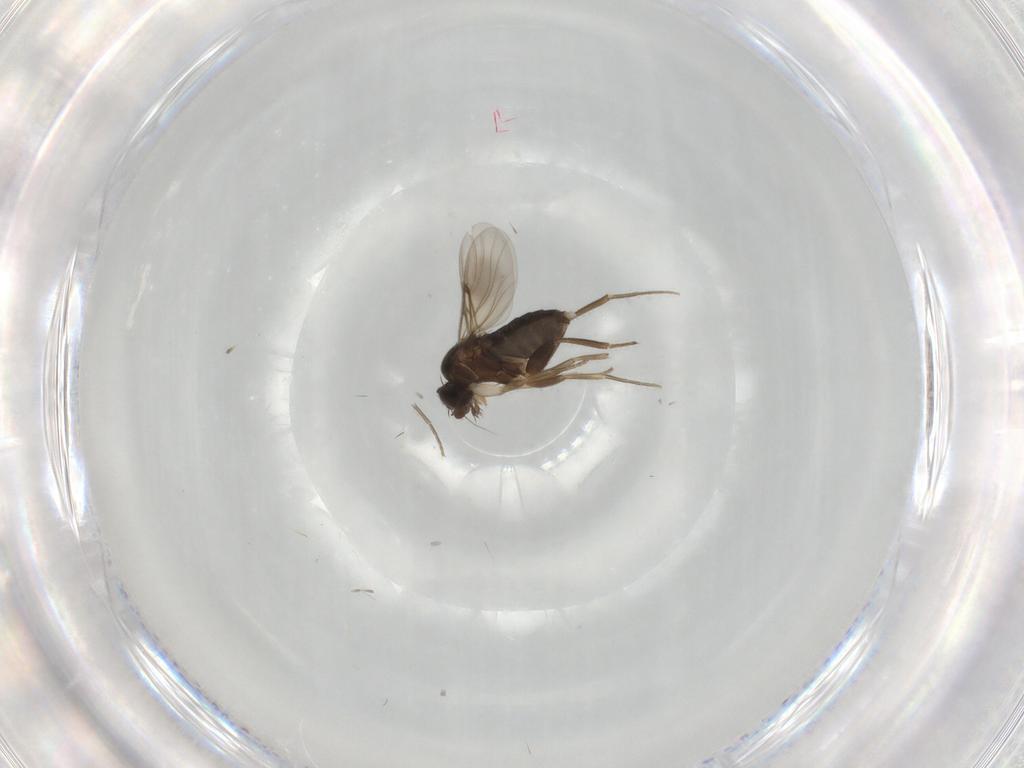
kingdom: Animalia
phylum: Arthropoda
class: Insecta
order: Diptera
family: Phoridae
